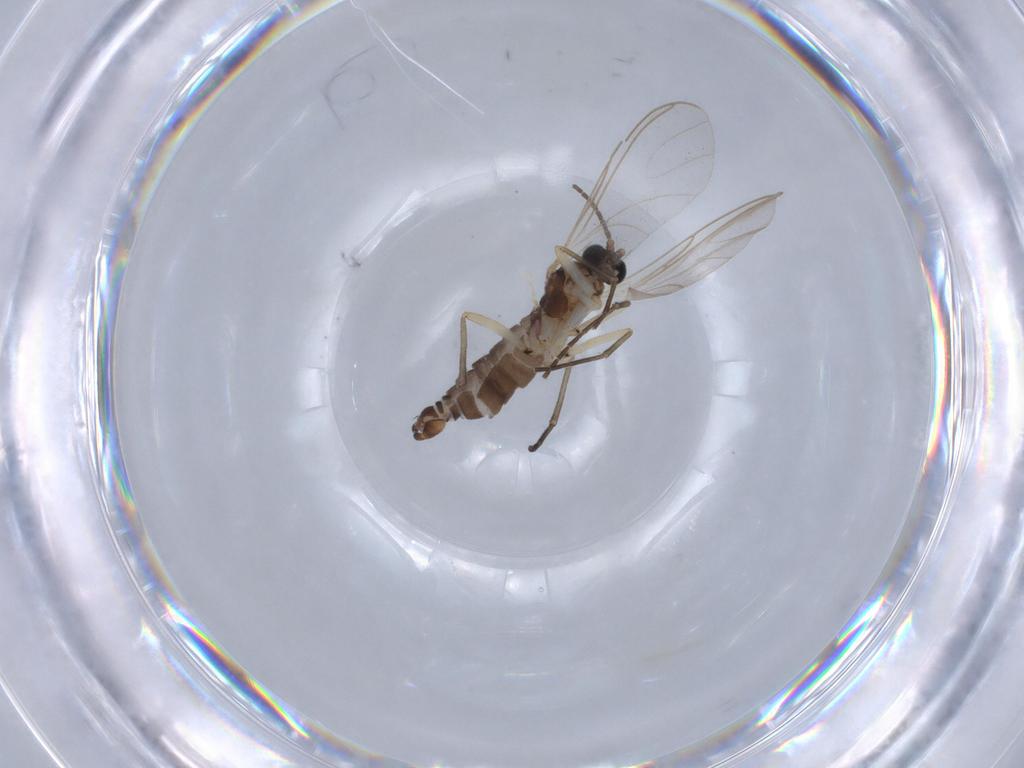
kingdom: Animalia
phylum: Arthropoda
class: Insecta
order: Diptera
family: Sciaridae
